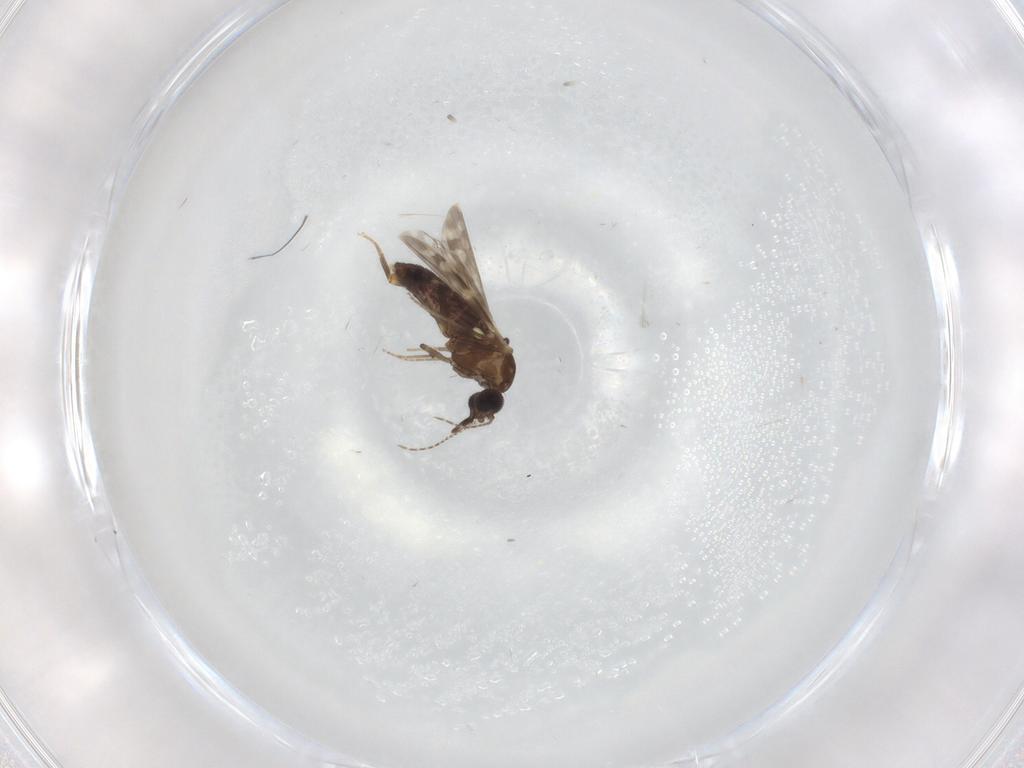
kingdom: Animalia
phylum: Arthropoda
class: Insecta
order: Diptera
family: Ceratopogonidae
